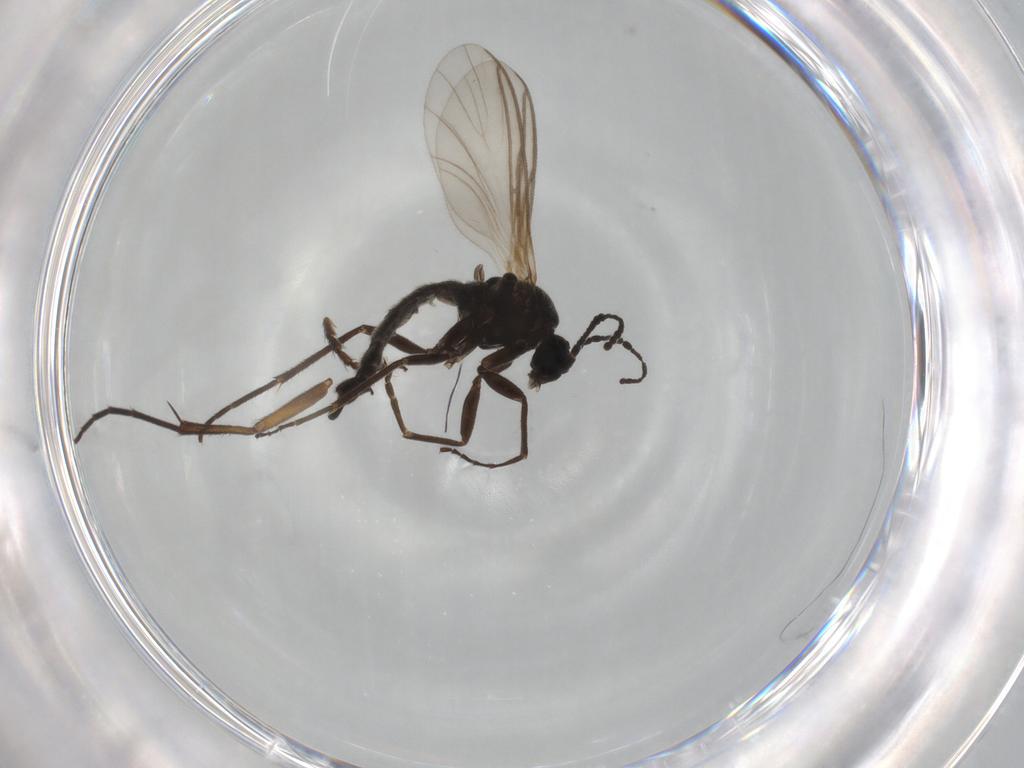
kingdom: Animalia
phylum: Arthropoda
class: Insecta
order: Diptera
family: Sciaridae
